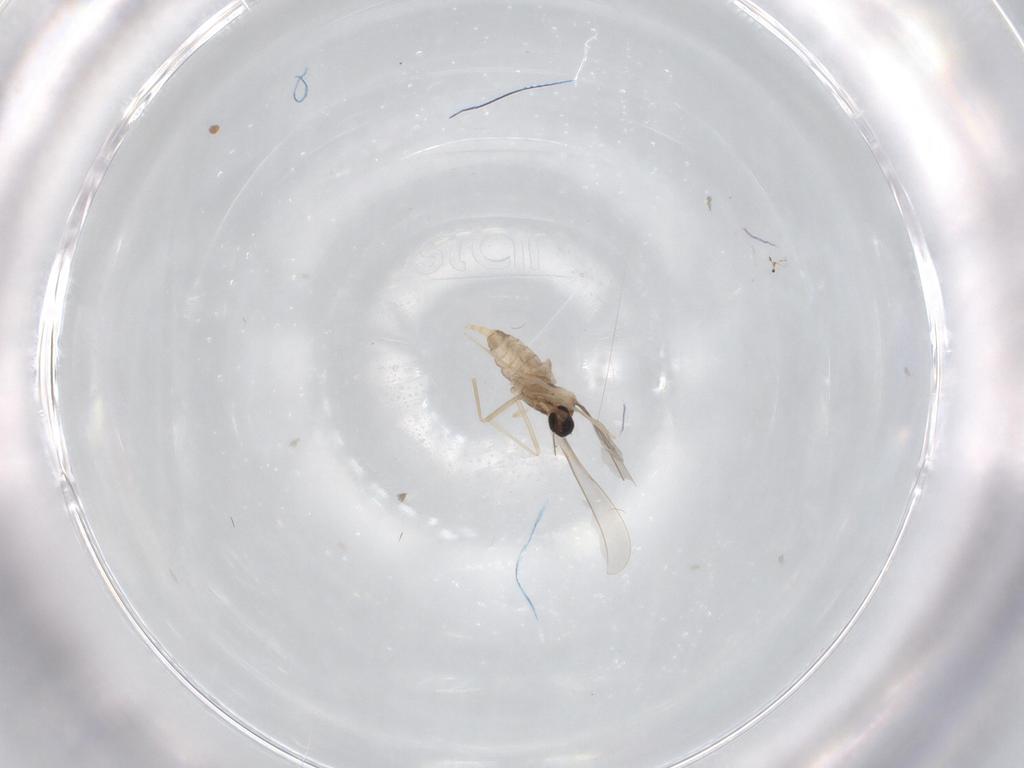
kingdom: Animalia
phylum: Arthropoda
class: Insecta
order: Diptera
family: Cecidomyiidae
